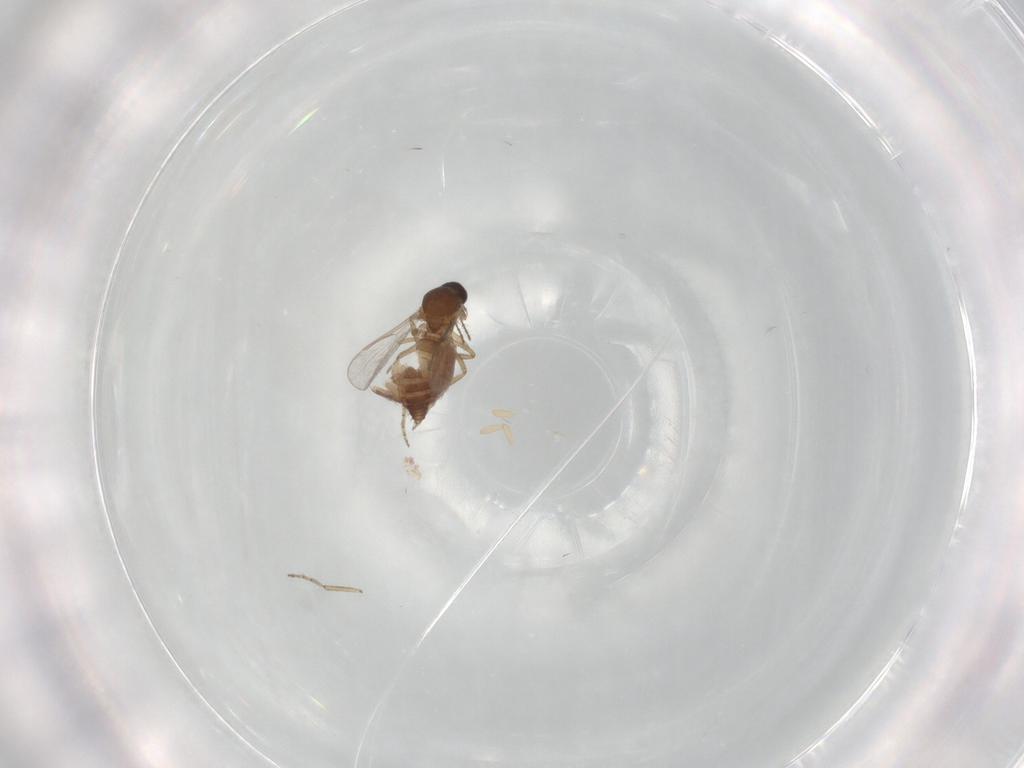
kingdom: Animalia
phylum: Arthropoda
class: Insecta
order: Diptera
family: Ceratopogonidae
